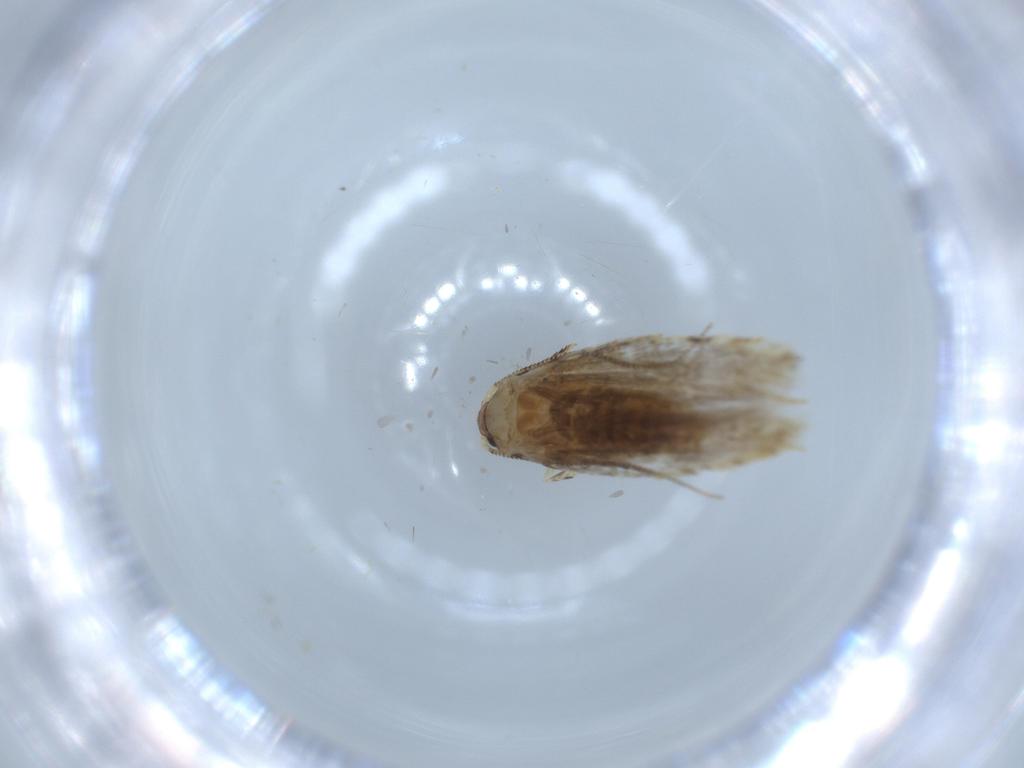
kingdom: Animalia
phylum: Arthropoda
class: Insecta
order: Lepidoptera
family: Tineidae
